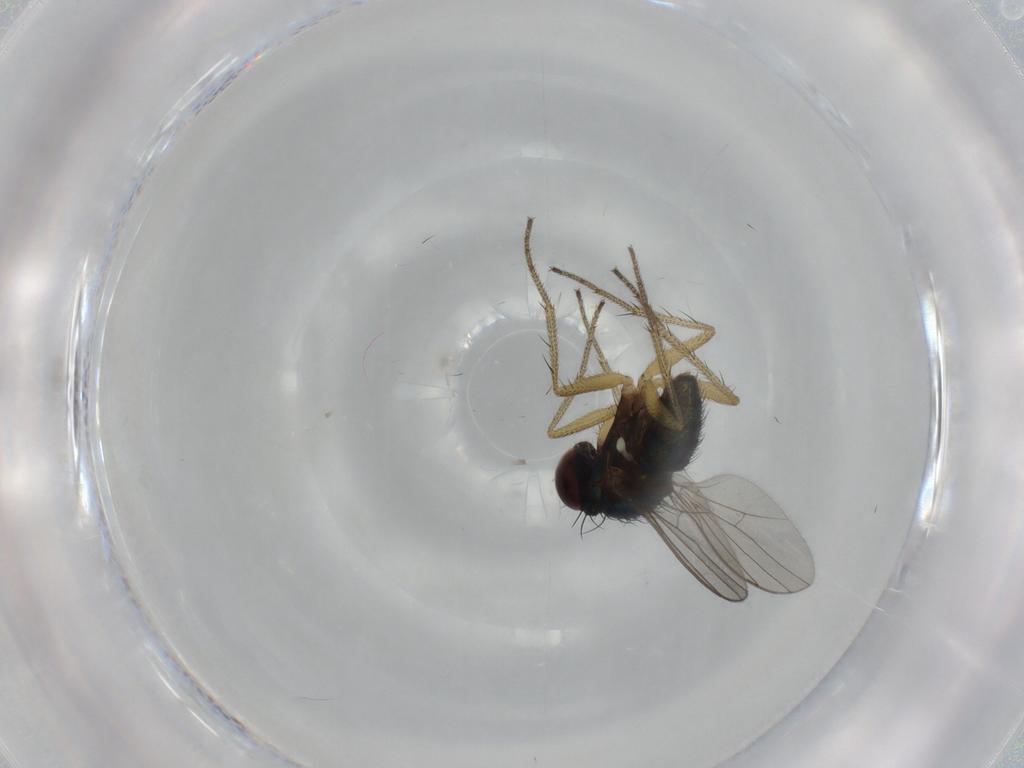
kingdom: Animalia
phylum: Arthropoda
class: Insecta
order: Diptera
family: Dolichopodidae
